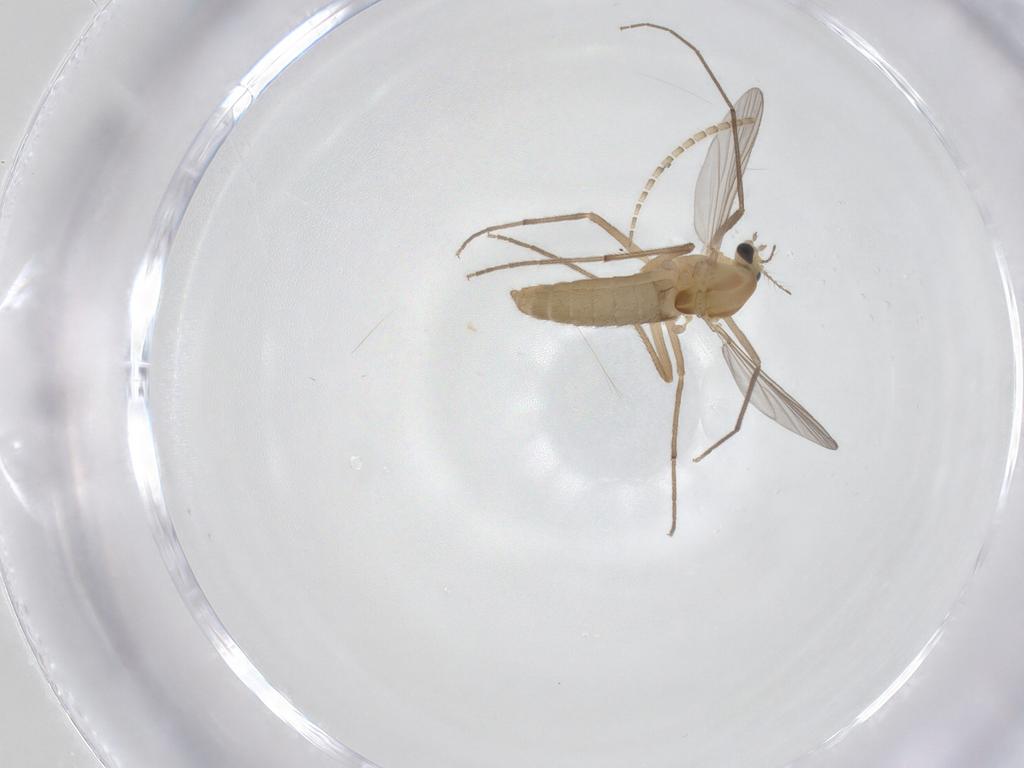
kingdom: Animalia
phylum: Arthropoda
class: Insecta
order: Diptera
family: Chironomidae
